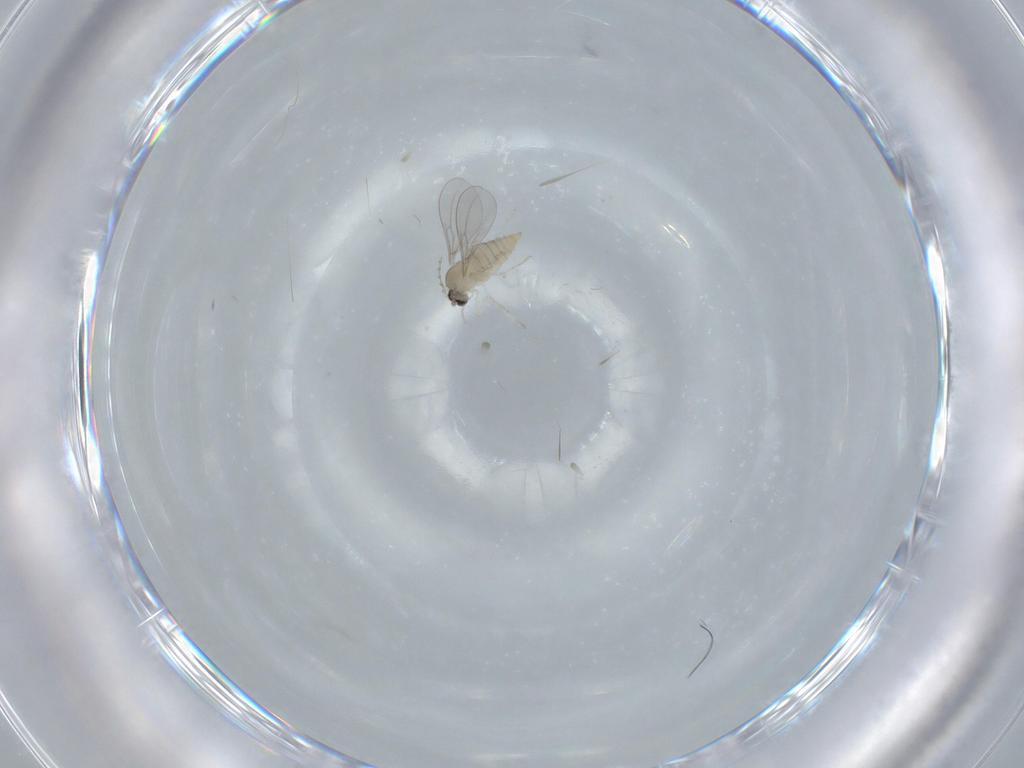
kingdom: Animalia
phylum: Arthropoda
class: Insecta
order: Diptera
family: Cecidomyiidae
